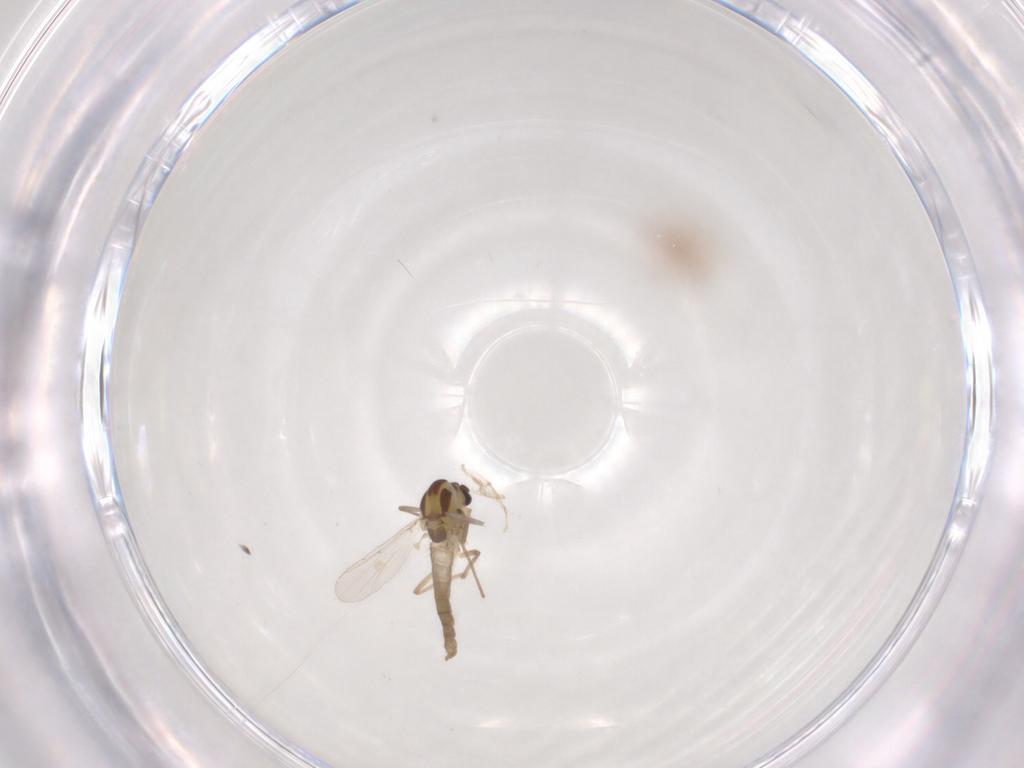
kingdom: Animalia
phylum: Arthropoda
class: Insecta
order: Diptera
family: Chironomidae
